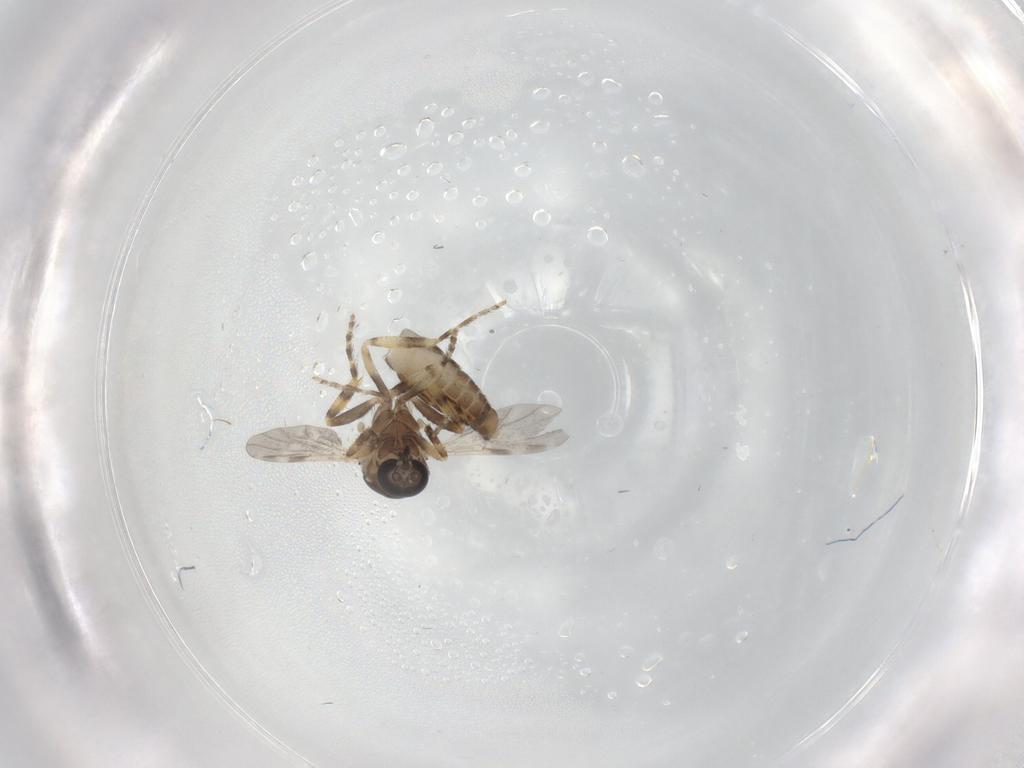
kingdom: Animalia
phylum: Arthropoda
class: Insecta
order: Diptera
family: Ceratopogonidae
